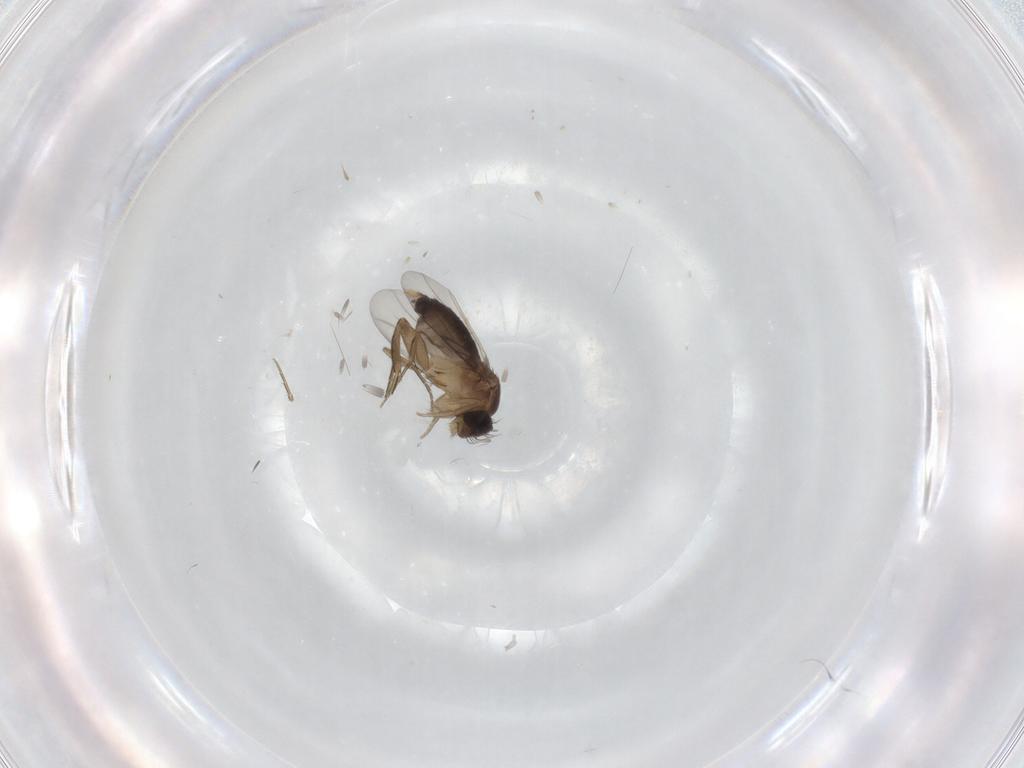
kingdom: Animalia
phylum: Arthropoda
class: Insecta
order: Diptera
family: Phoridae
